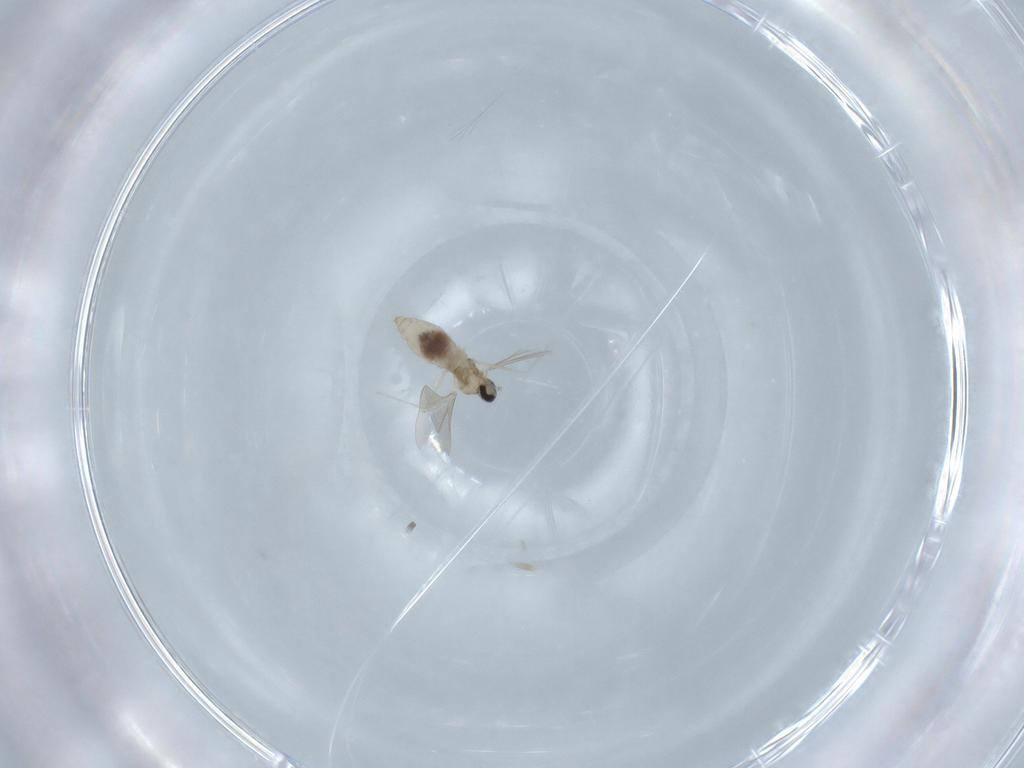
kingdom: Animalia
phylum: Arthropoda
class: Insecta
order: Diptera
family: Cecidomyiidae
